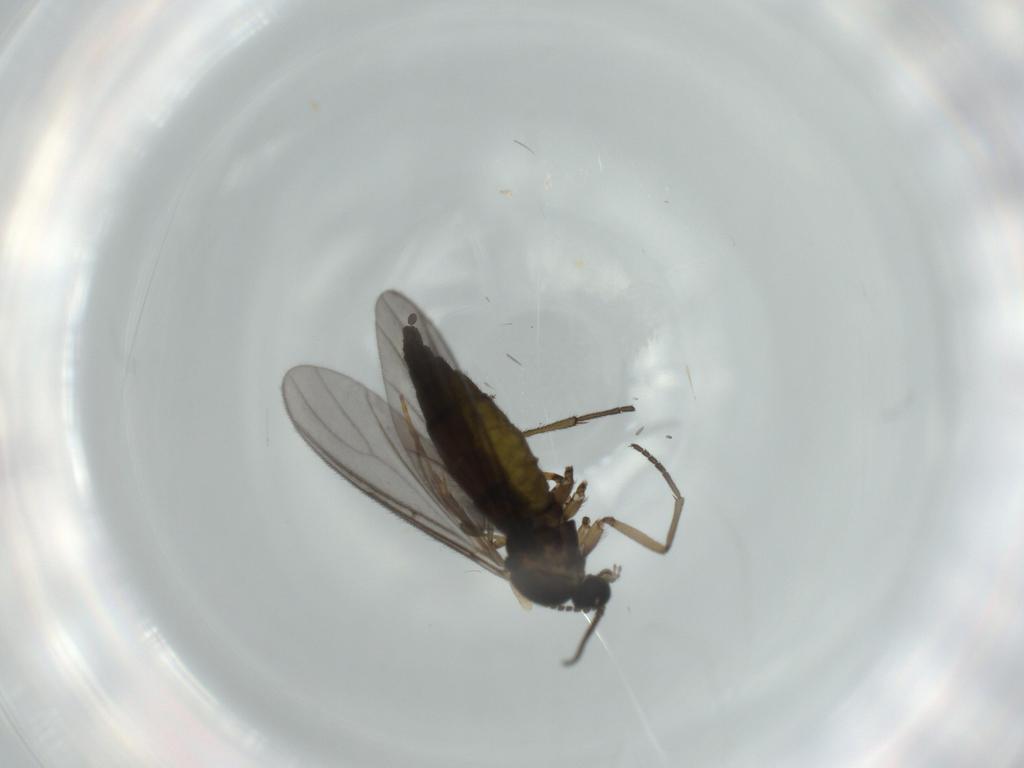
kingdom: Animalia
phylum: Arthropoda
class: Insecta
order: Diptera
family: Sciaridae
